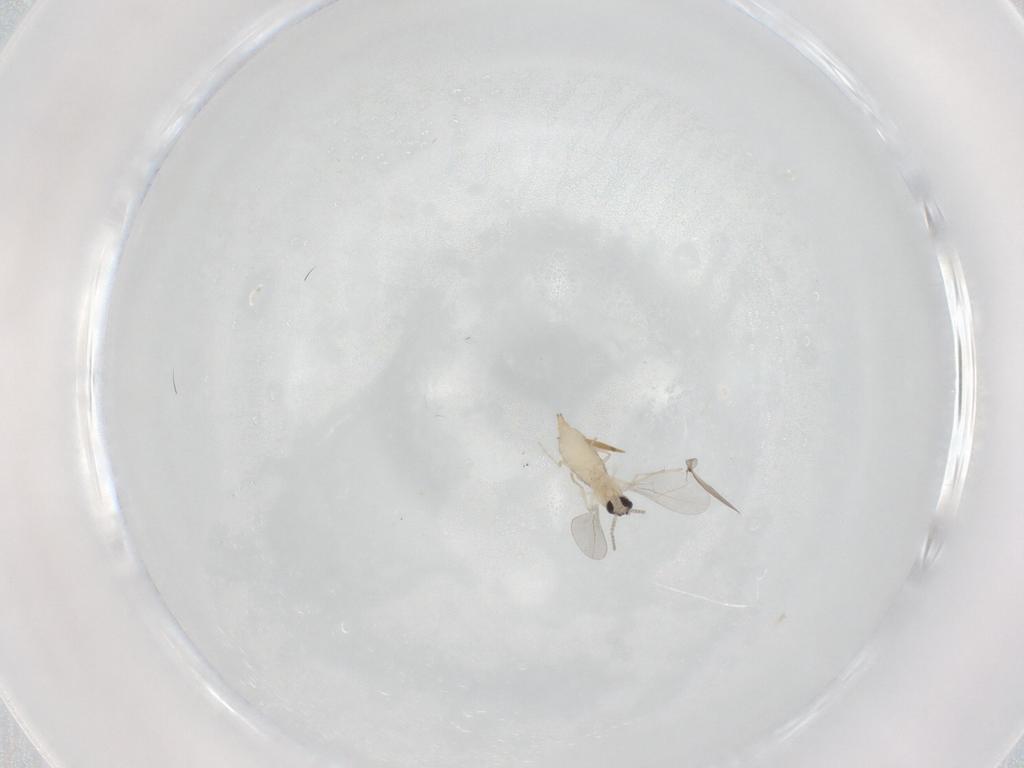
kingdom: Animalia
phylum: Arthropoda
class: Insecta
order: Diptera
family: Cecidomyiidae
